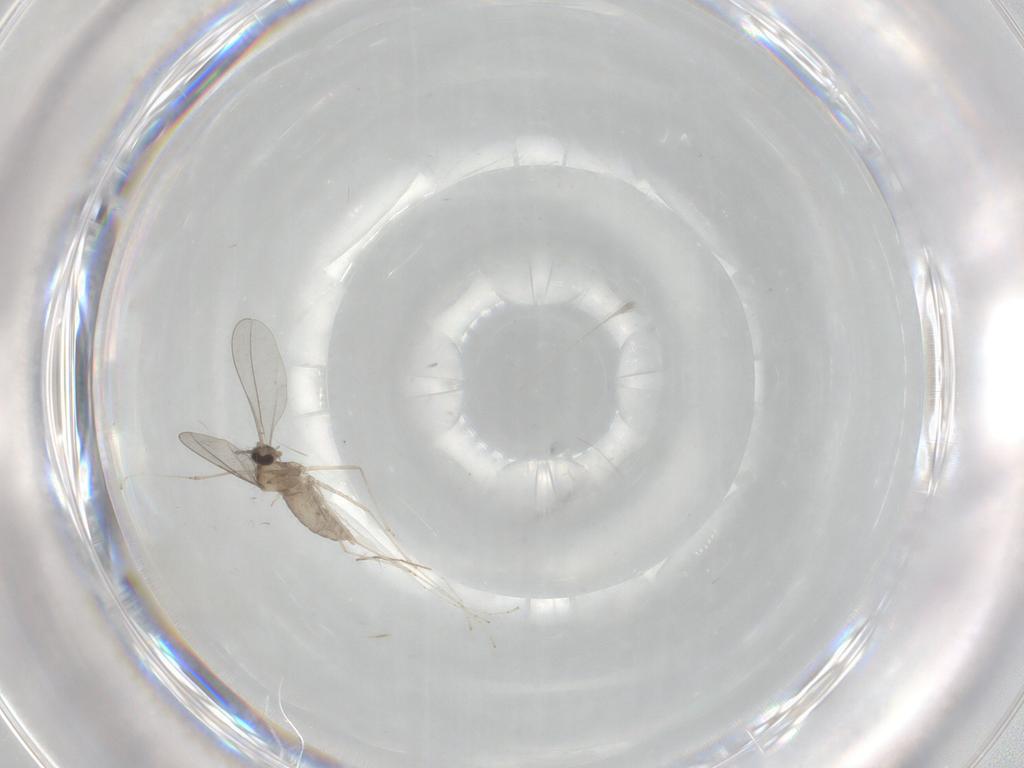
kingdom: Animalia
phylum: Arthropoda
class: Insecta
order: Diptera
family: Cecidomyiidae
